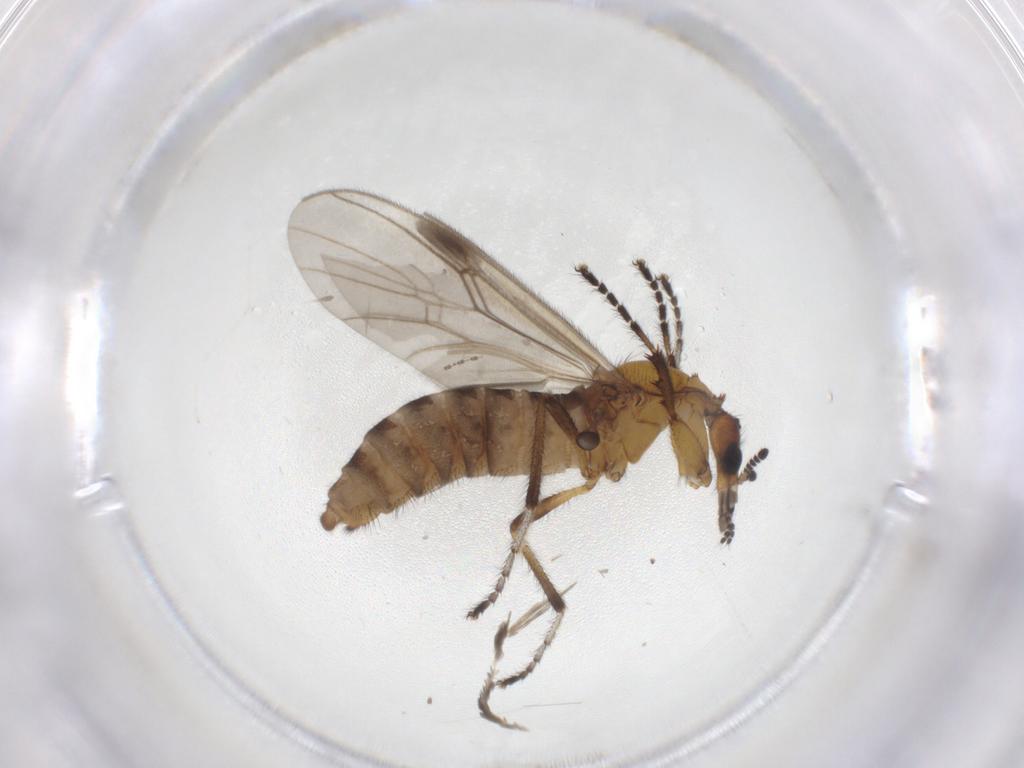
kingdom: Animalia
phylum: Arthropoda
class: Insecta
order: Diptera
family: Bibionidae
